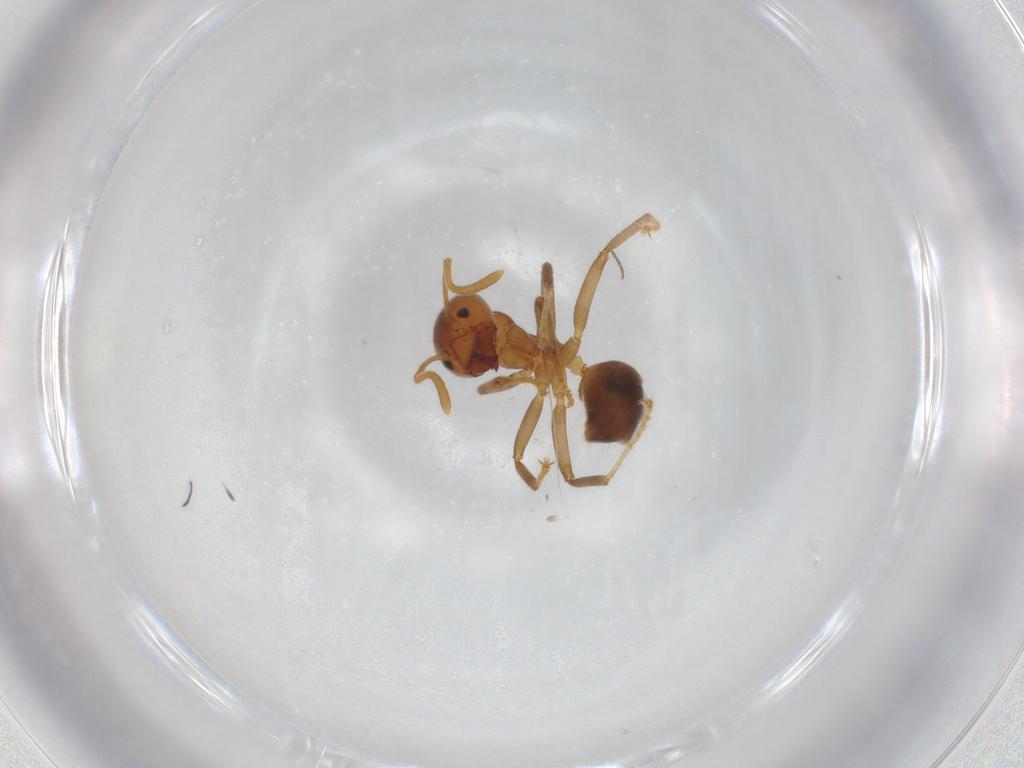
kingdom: Animalia
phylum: Arthropoda
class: Insecta
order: Hymenoptera
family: Formicidae
